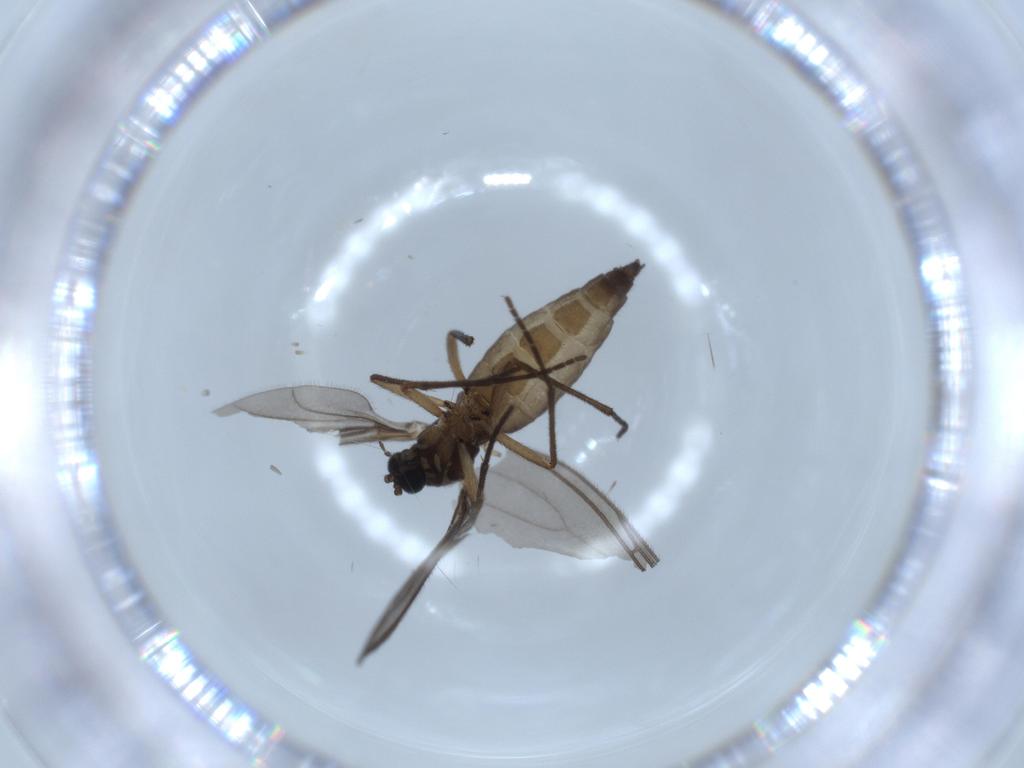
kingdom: Animalia
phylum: Arthropoda
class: Insecta
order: Diptera
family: Sciaridae
